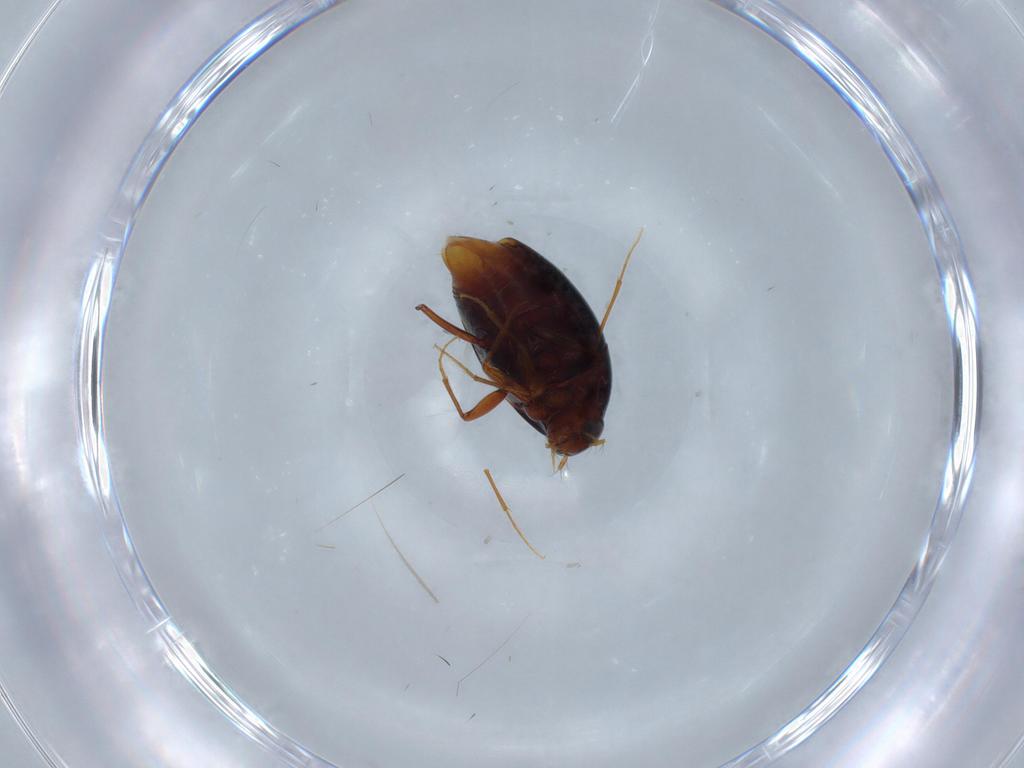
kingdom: Animalia
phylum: Arthropoda
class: Insecta
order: Coleoptera
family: Staphylinidae
